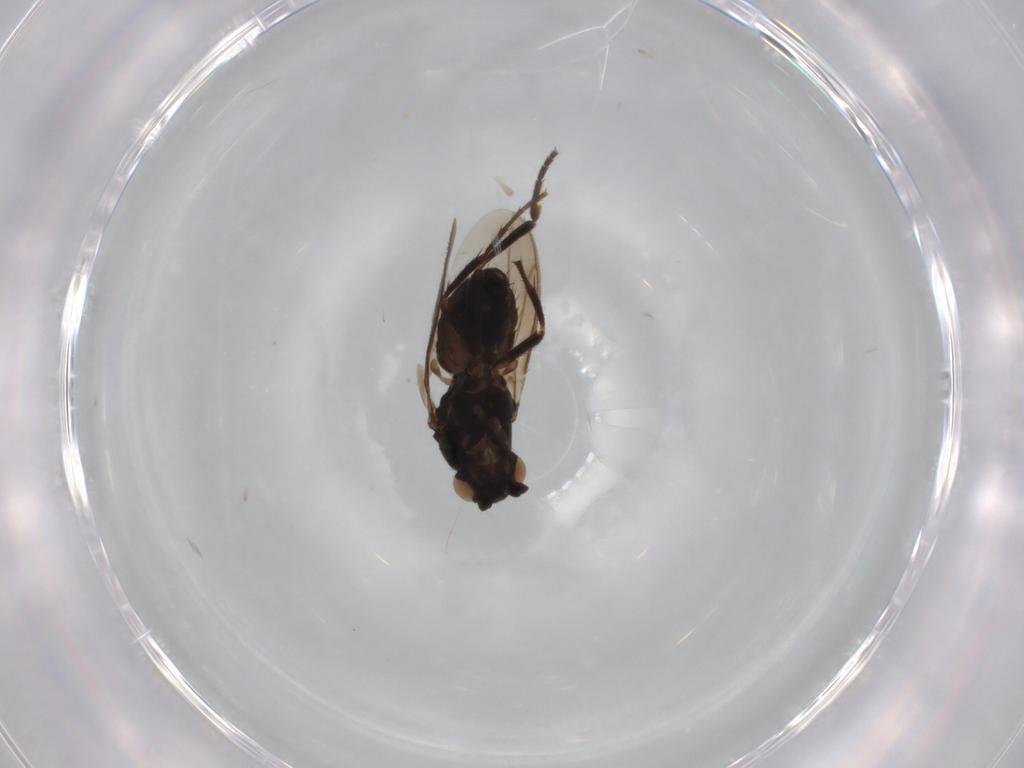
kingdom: Animalia
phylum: Arthropoda
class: Insecta
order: Diptera
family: Sphaeroceridae
